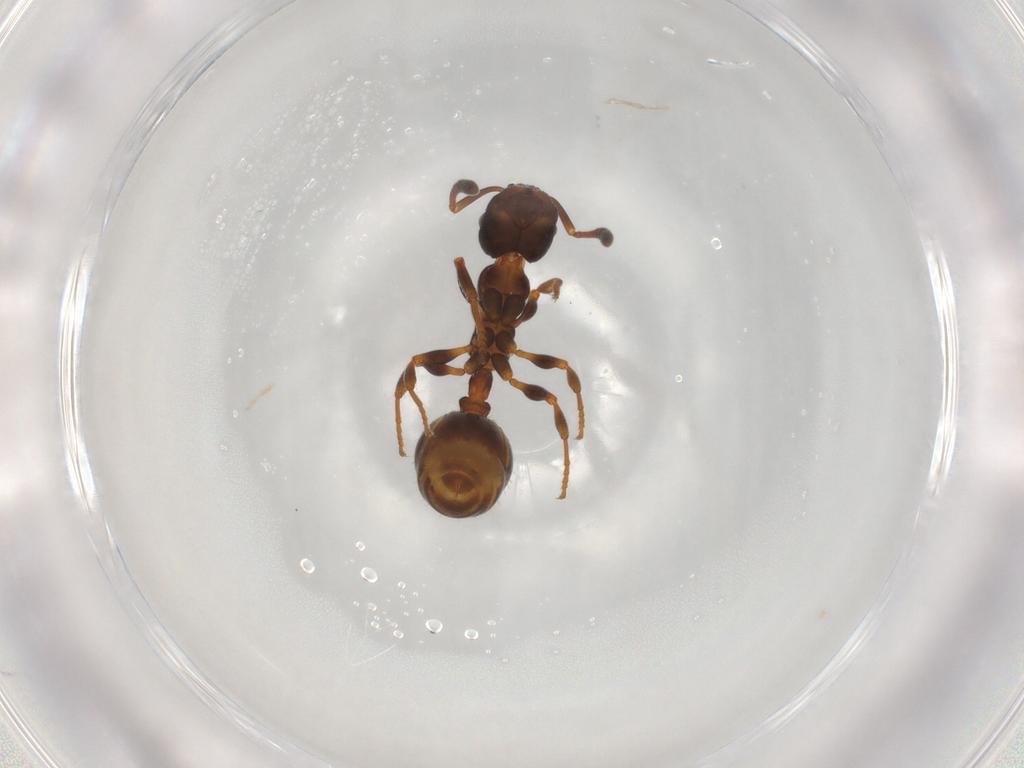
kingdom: Animalia
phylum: Arthropoda
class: Insecta
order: Hymenoptera
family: Formicidae
